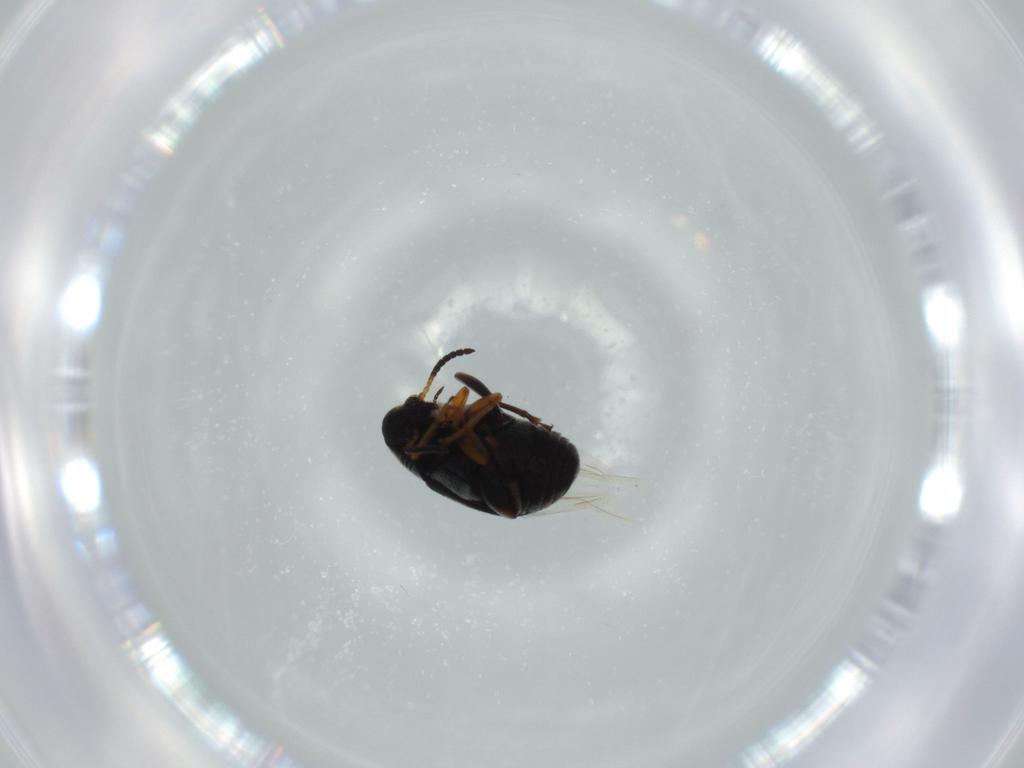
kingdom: Animalia
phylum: Arthropoda
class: Insecta
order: Coleoptera
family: Chrysomelidae
